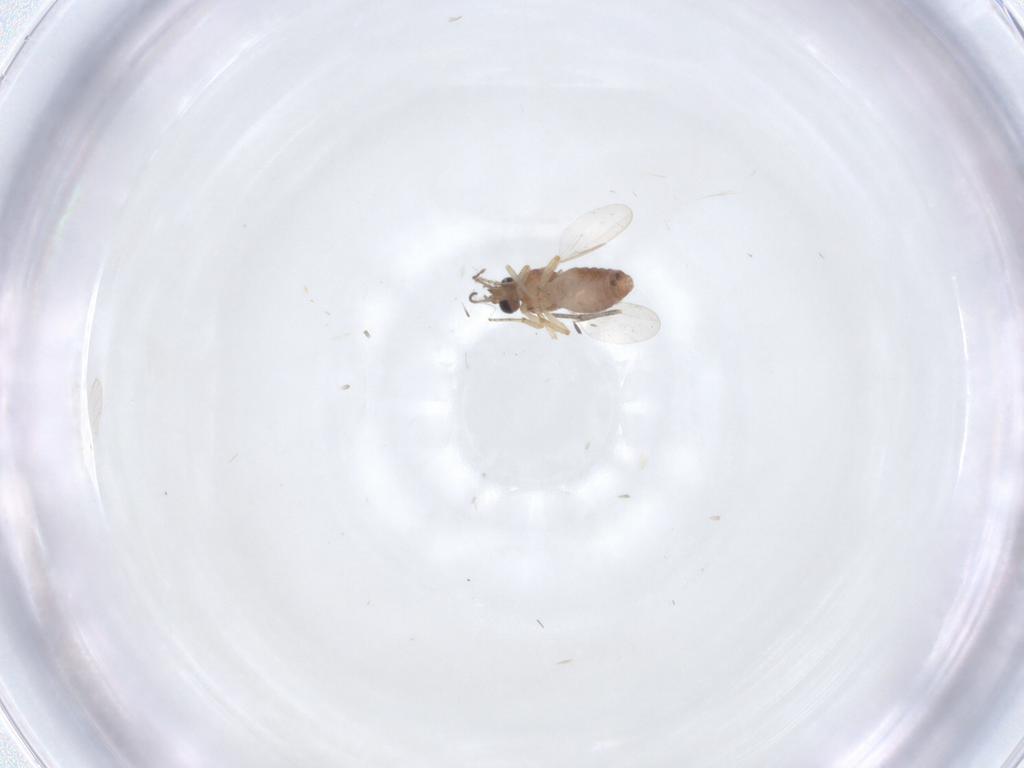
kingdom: Animalia
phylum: Arthropoda
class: Insecta
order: Diptera
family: Ceratopogonidae
